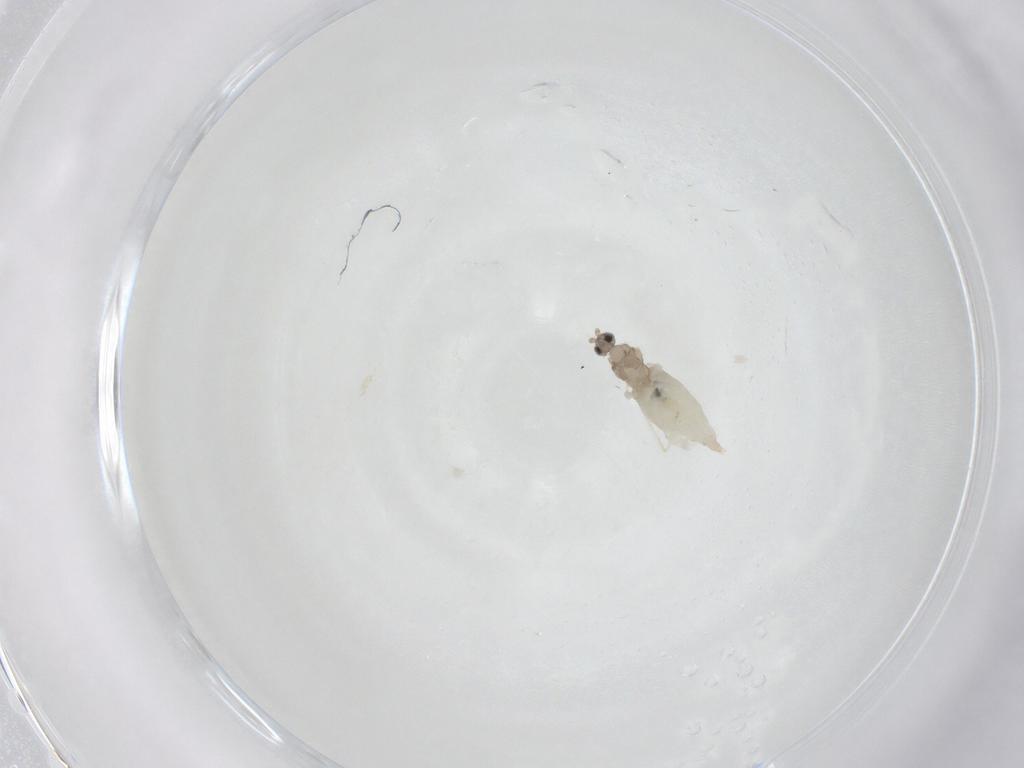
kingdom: Animalia
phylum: Arthropoda
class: Insecta
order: Diptera
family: Cecidomyiidae
